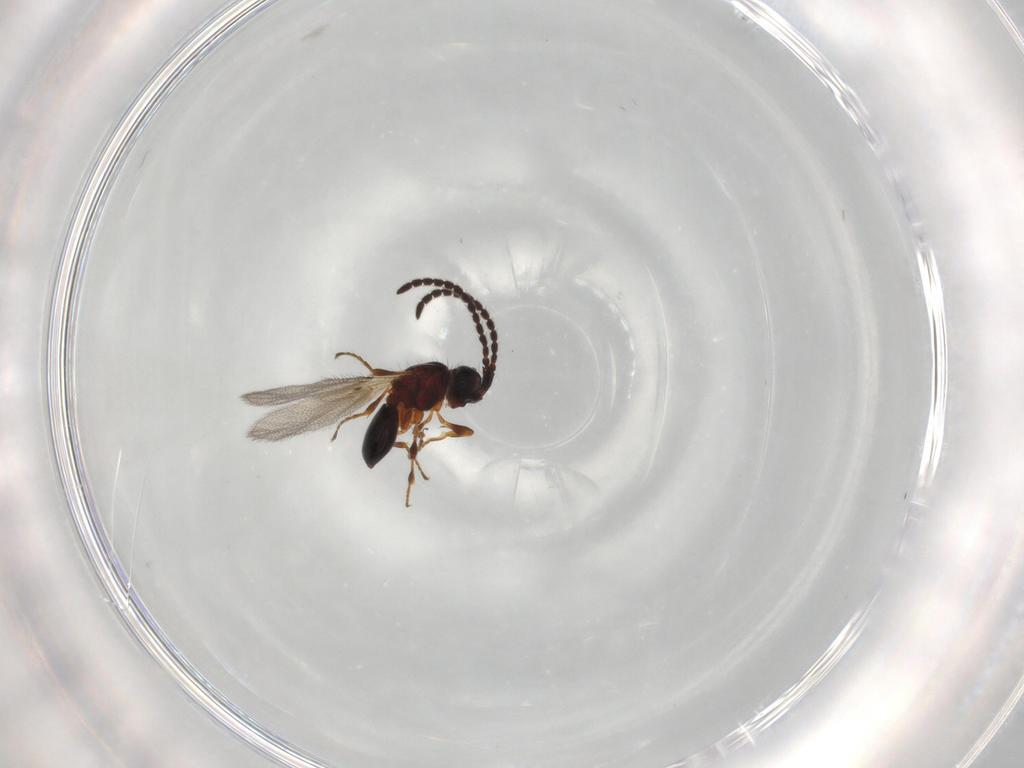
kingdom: Animalia
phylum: Arthropoda
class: Insecta
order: Hymenoptera
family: Diapriidae
